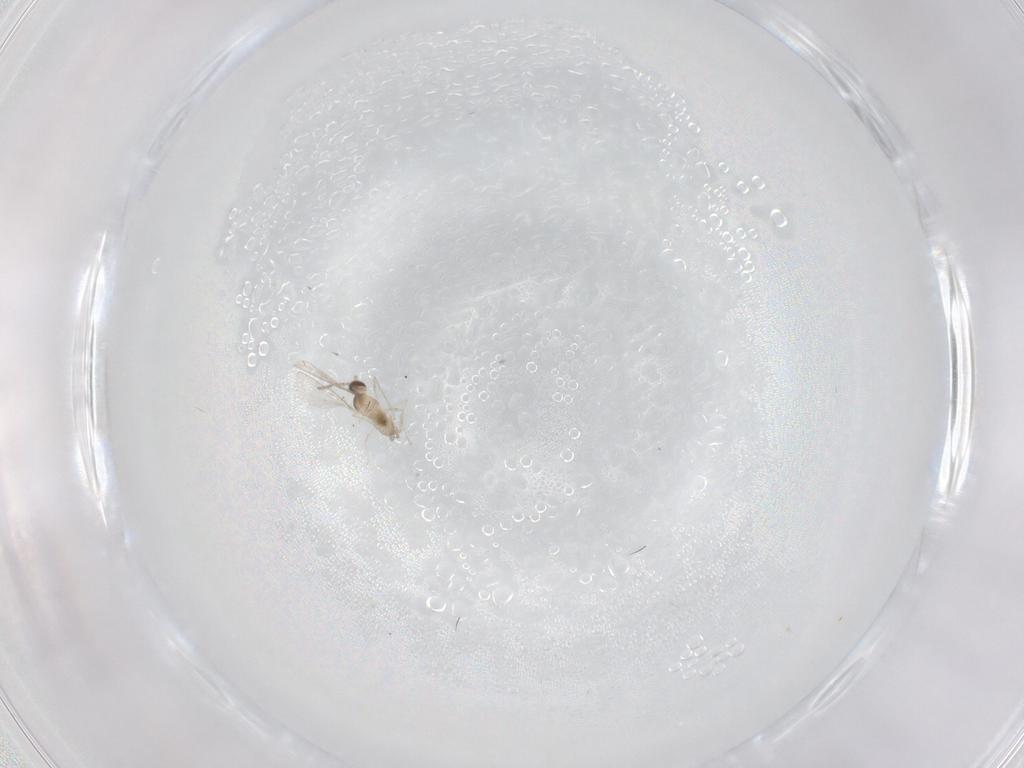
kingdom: Animalia
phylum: Arthropoda
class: Insecta
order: Diptera
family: Cecidomyiidae
